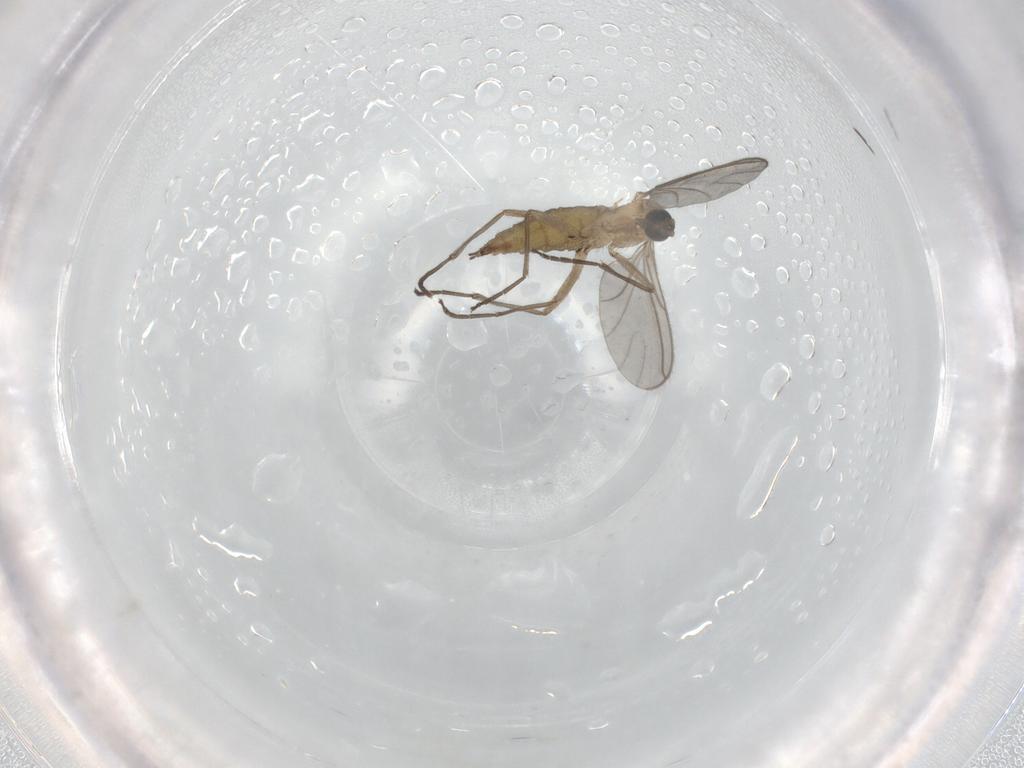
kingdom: Animalia
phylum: Arthropoda
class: Insecta
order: Diptera
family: Sciaridae
